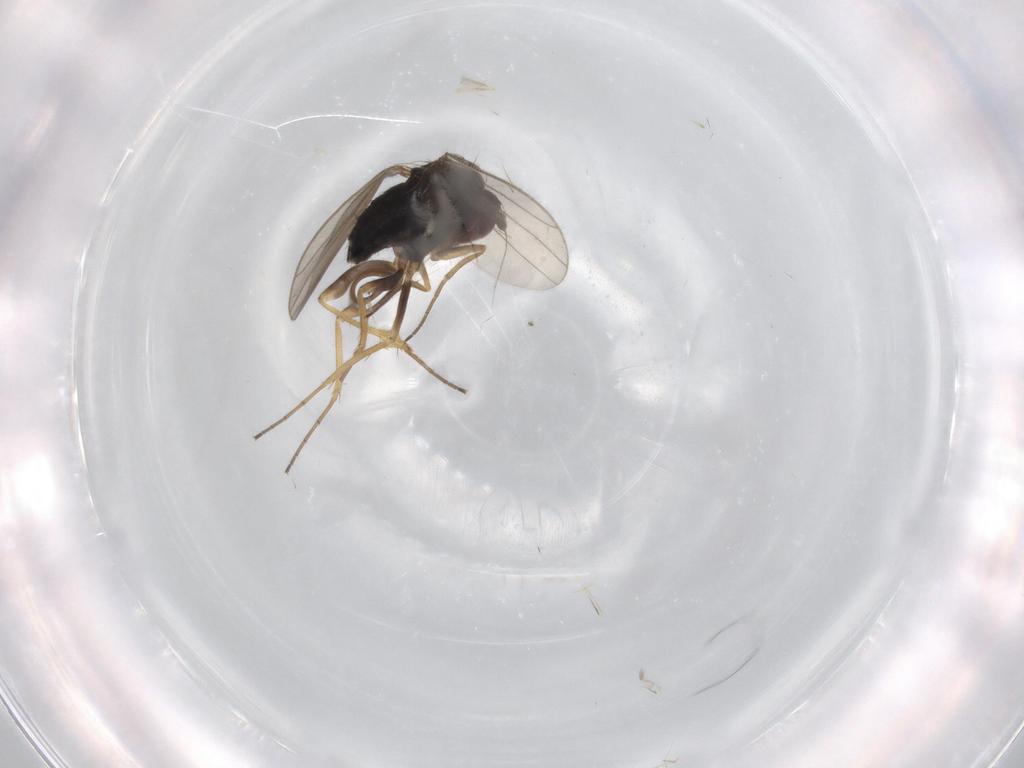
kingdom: Animalia
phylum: Arthropoda
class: Insecta
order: Diptera
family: Dolichopodidae
